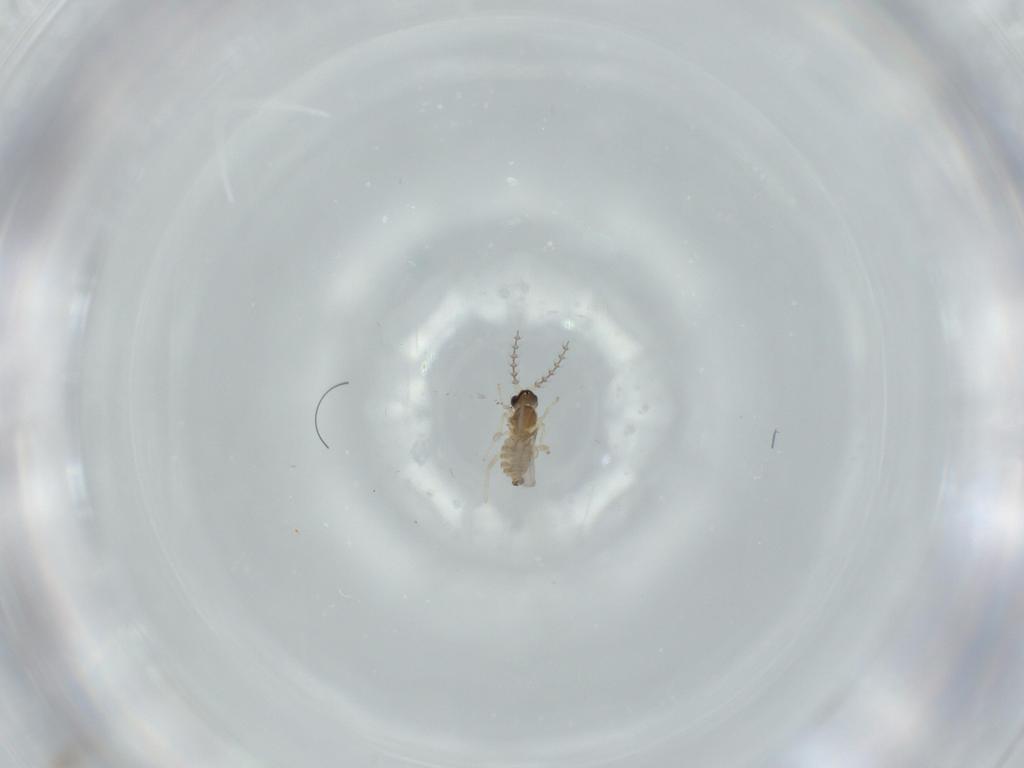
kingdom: Animalia
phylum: Arthropoda
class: Insecta
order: Diptera
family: Cecidomyiidae
